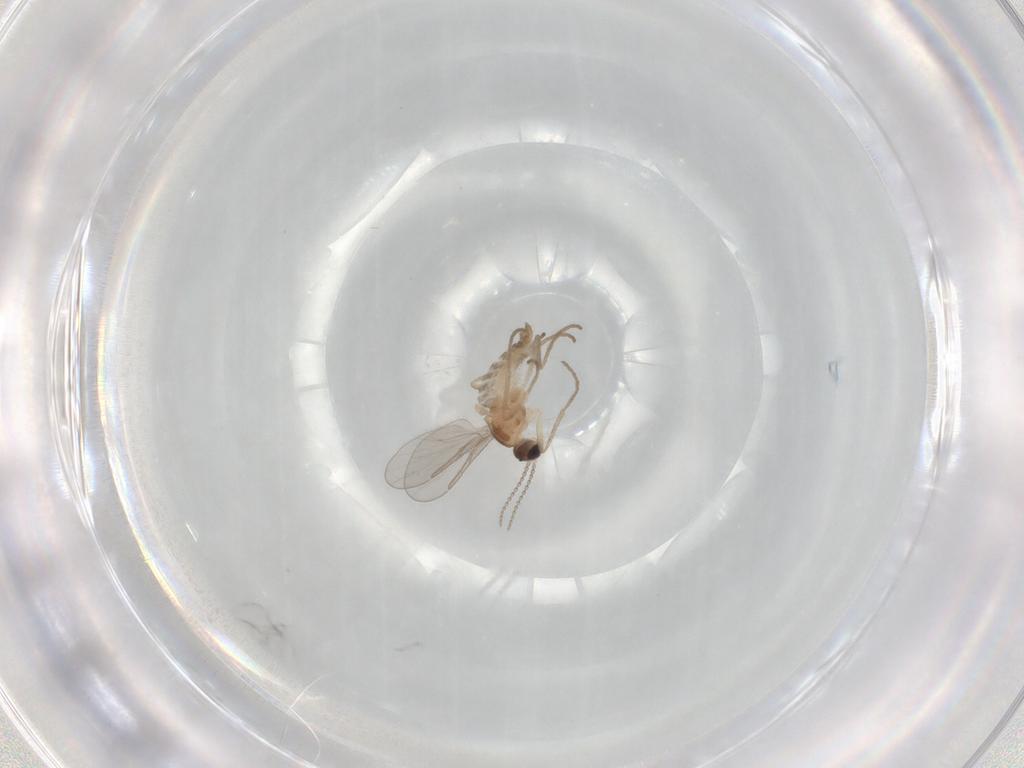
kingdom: Animalia
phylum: Arthropoda
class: Insecta
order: Diptera
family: Cecidomyiidae
